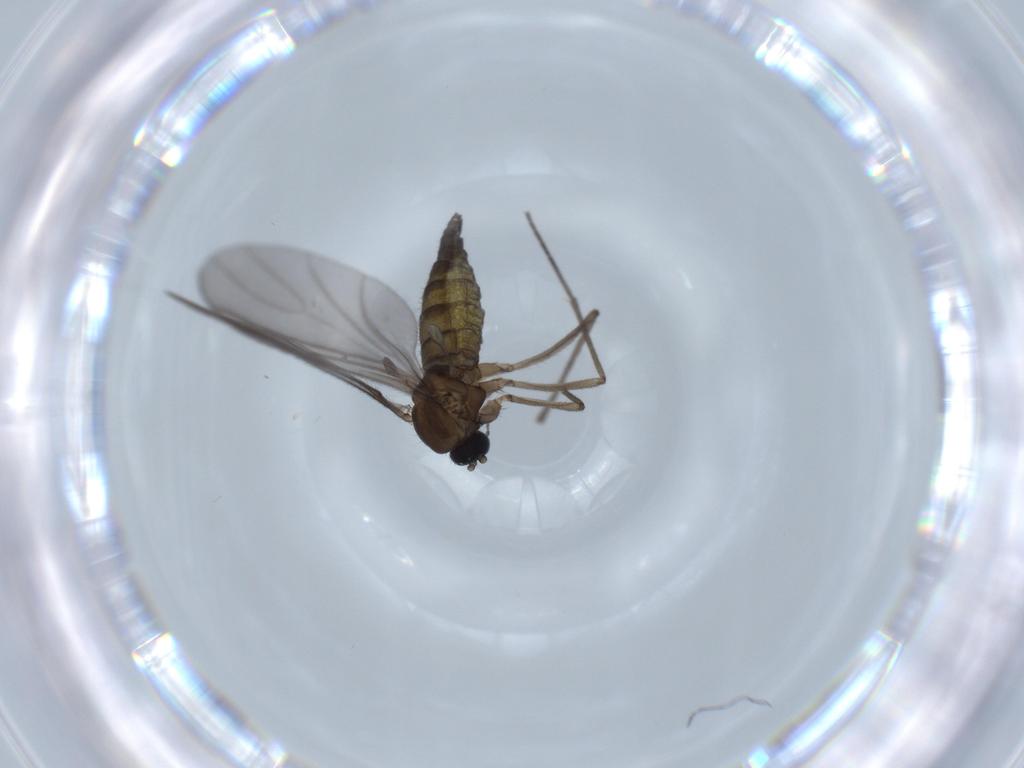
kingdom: Animalia
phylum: Arthropoda
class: Insecta
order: Diptera
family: Sciaridae
